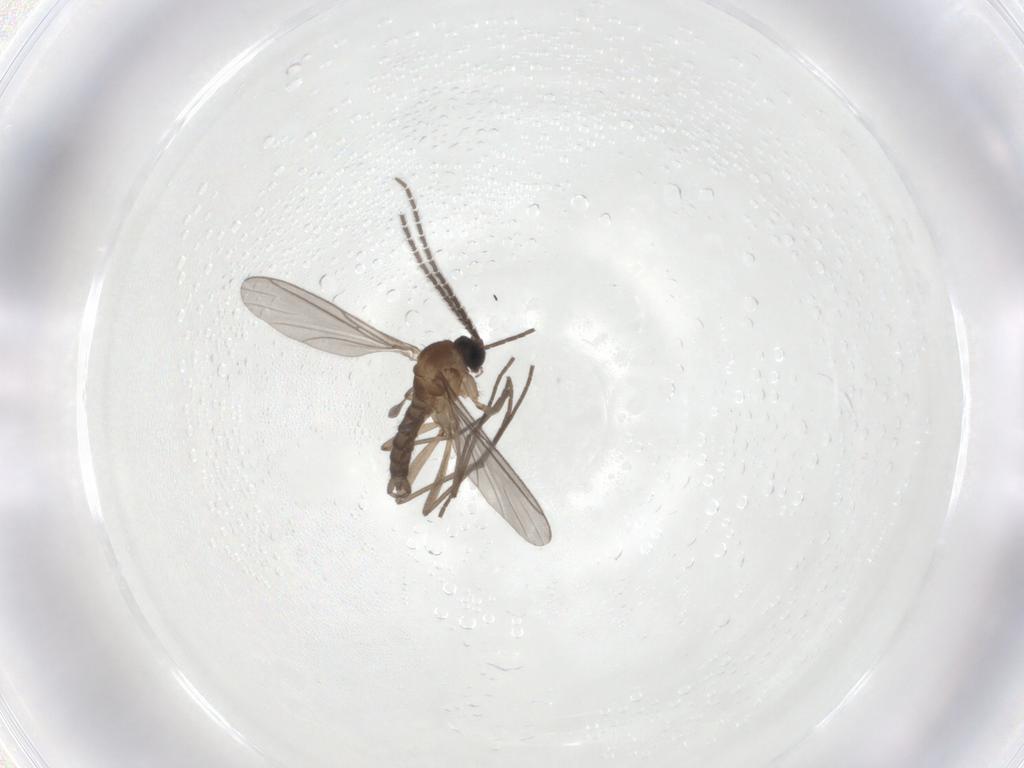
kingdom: Animalia
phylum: Arthropoda
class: Insecta
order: Diptera
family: Sciaridae
